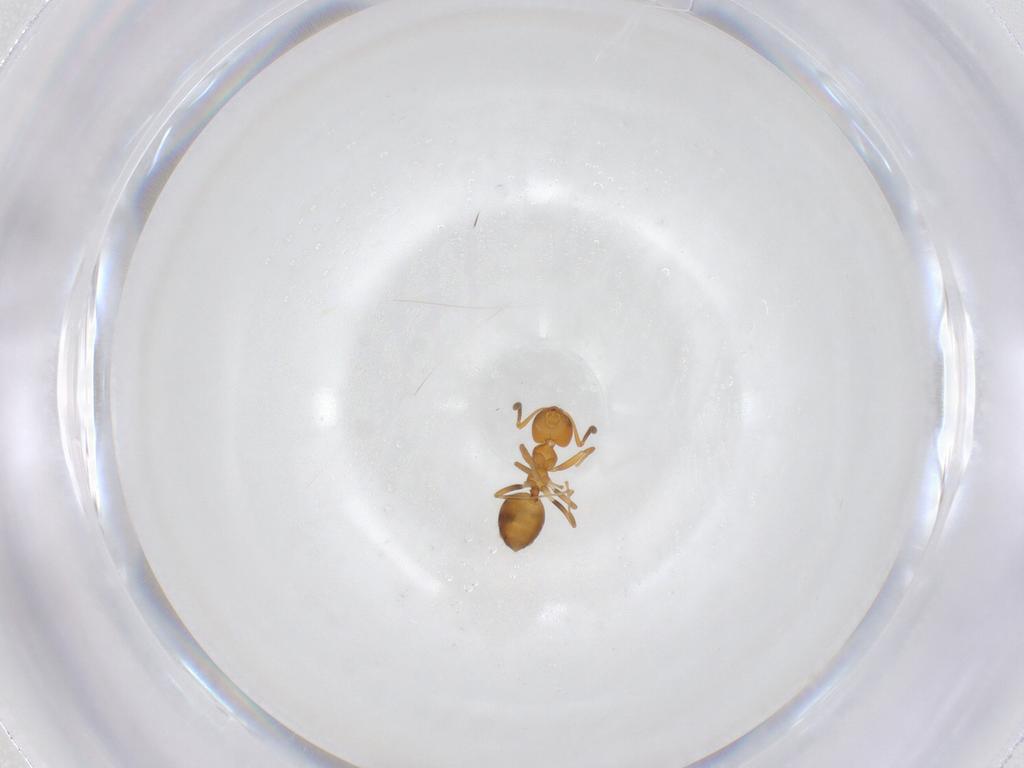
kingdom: Animalia
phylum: Arthropoda
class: Insecta
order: Hymenoptera
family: Formicidae
